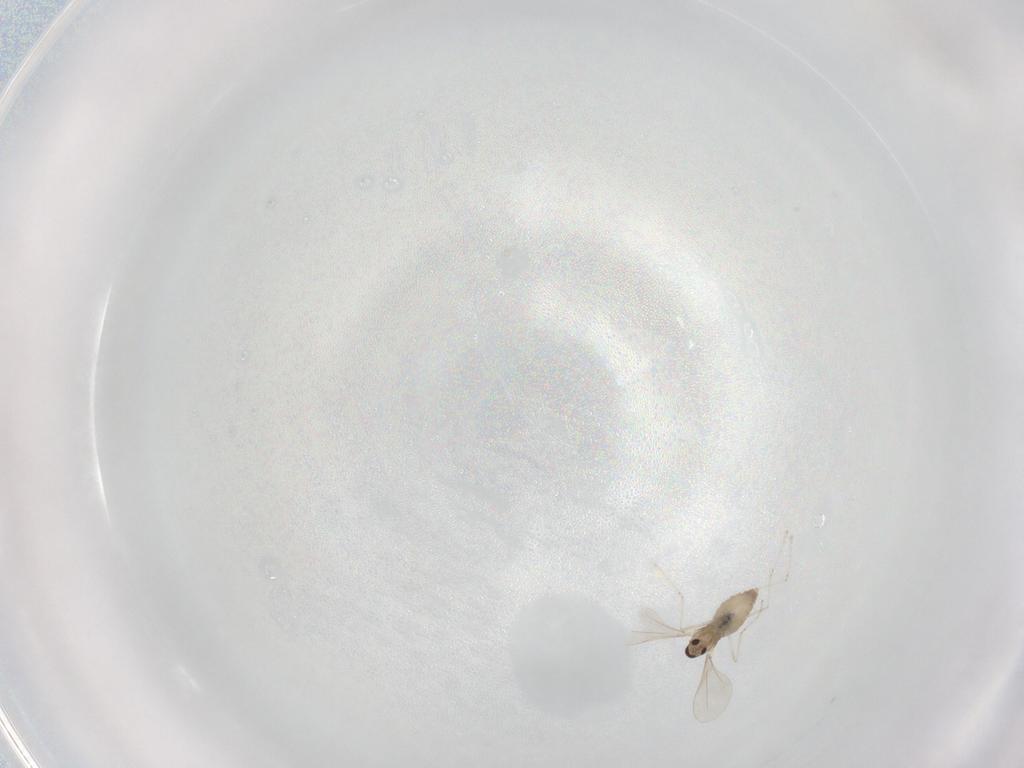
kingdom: Animalia
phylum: Arthropoda
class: Insecta
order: Diptera
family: Cecidomyiidae
